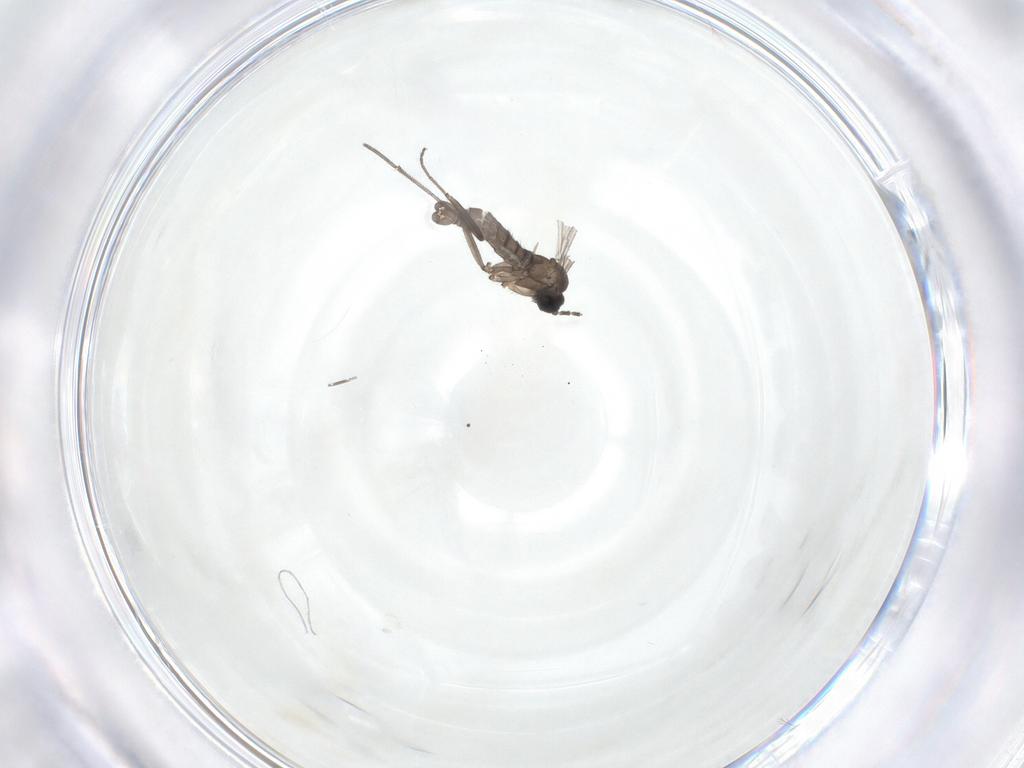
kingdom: Animalia
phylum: Arthropoda
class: Insecta
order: Diptera
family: Sciaridae
